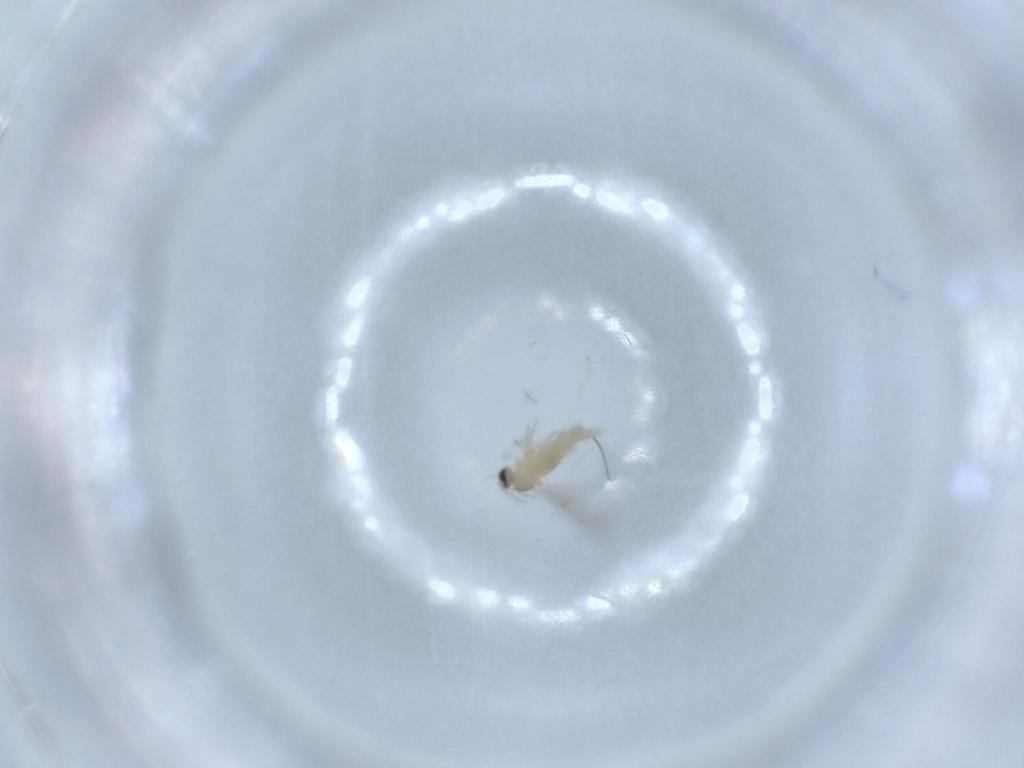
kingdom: Animalia
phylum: Arthropoda
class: Insecta
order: Diptera
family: Cecidomyiidae
